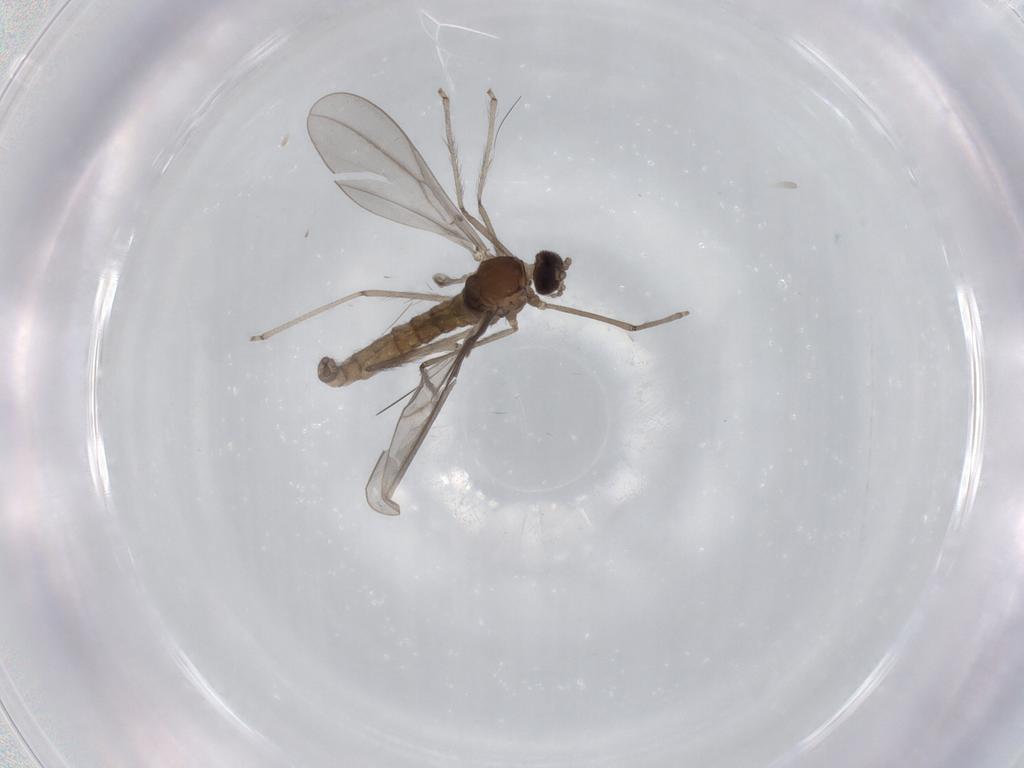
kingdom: Animalia
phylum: Arthropoda
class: Insecta
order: Diptera
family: Cecidomyiidae
